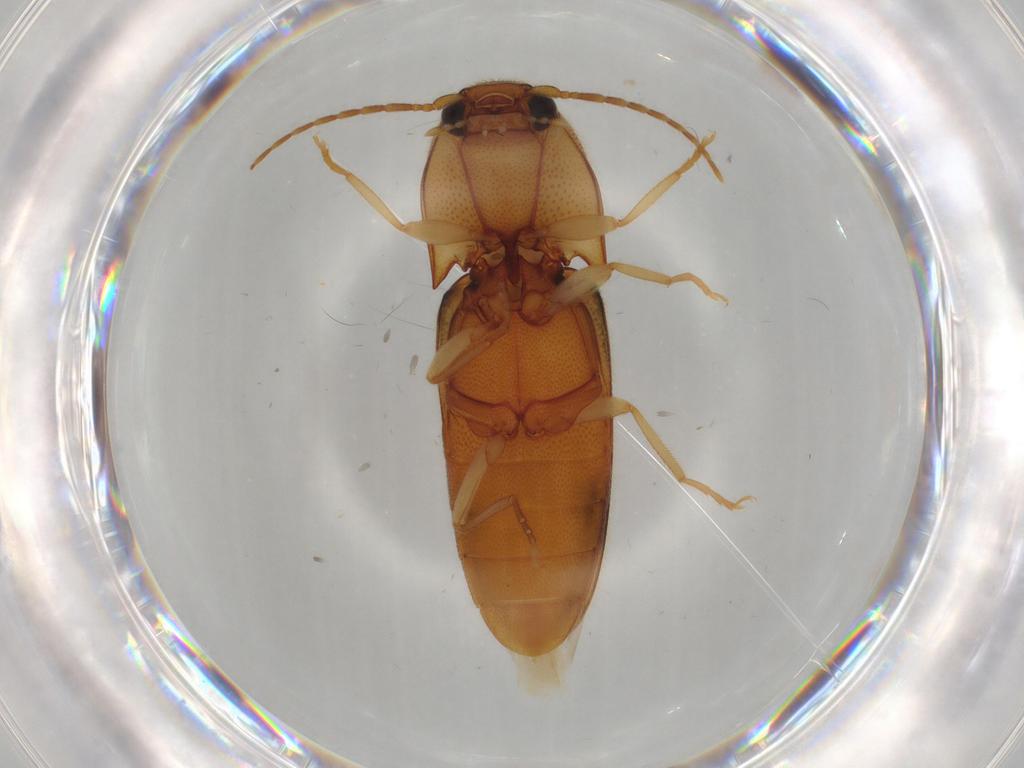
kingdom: Animalia
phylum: Arthropoda
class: Insecta
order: Coleoptera
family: Elateridae
